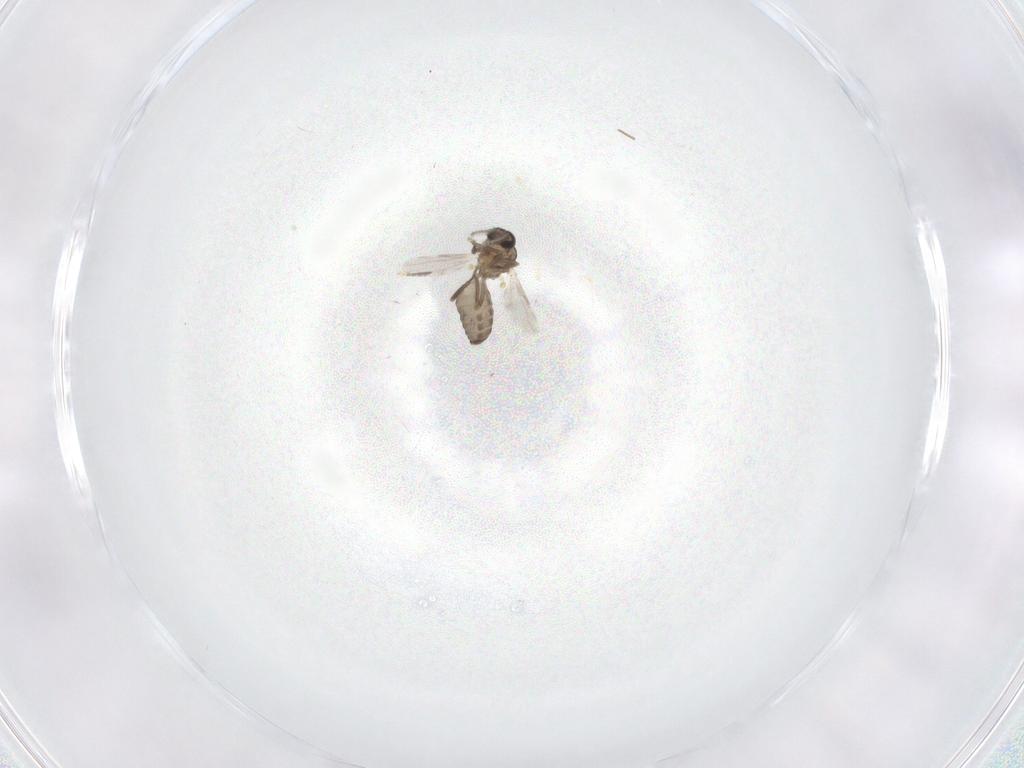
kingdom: Animalia
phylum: Arthropoda
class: Insecta
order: Diptera
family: Ceratopogonidae
